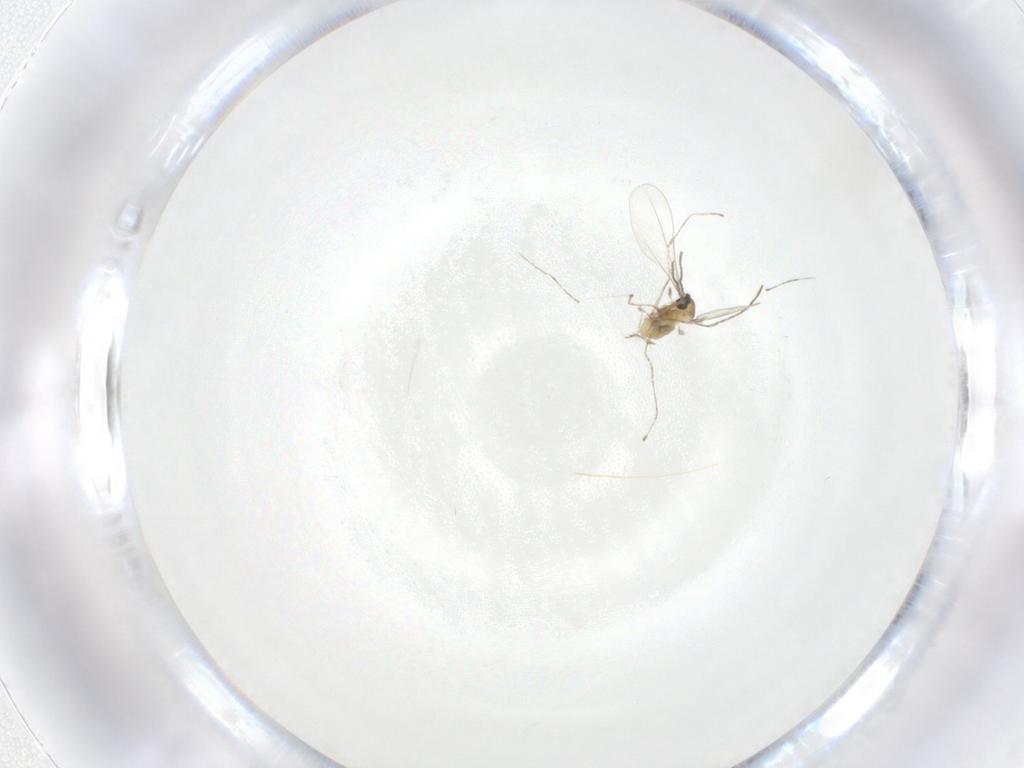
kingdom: Animalia
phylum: Arthropoda
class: Insecta
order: Diptera
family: Cecidomyiidae
